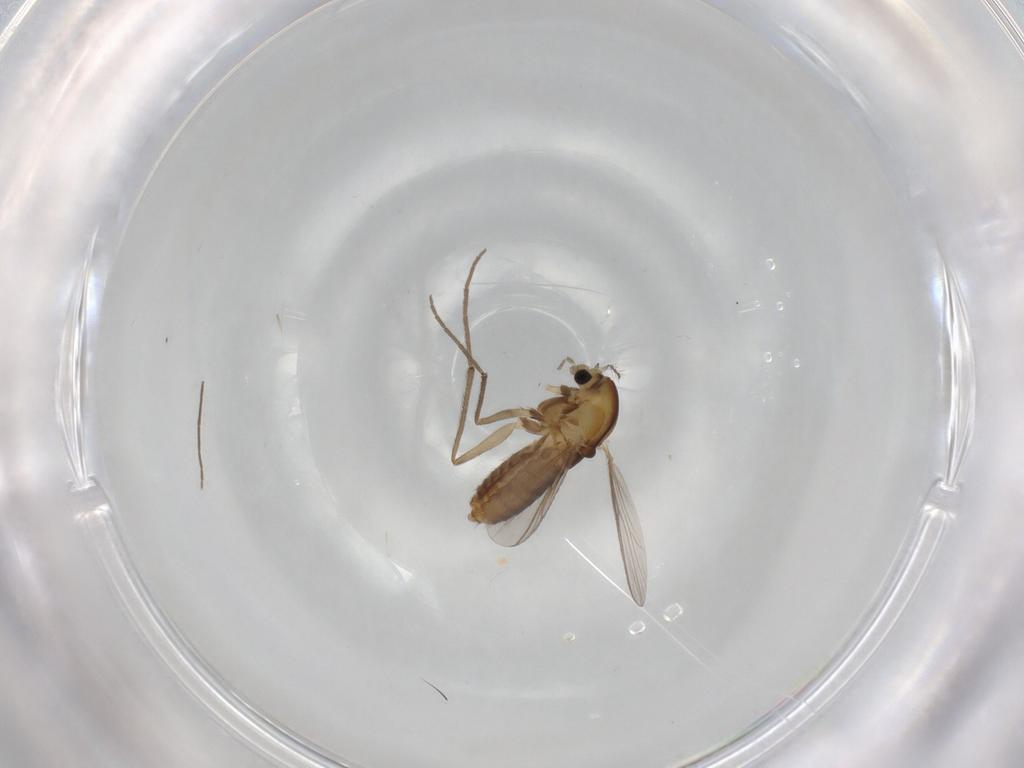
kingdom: Animalia
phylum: Arthropoda
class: Insecta
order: Diptera
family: Chironomidae
